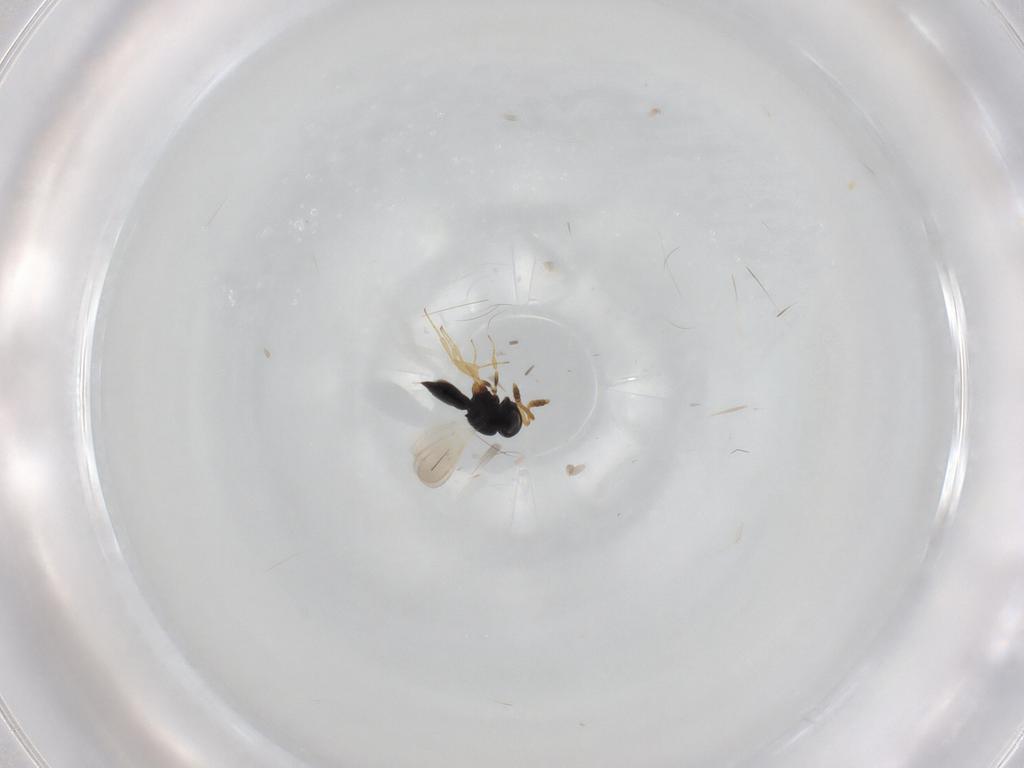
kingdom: Animalia
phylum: Arthropoda
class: Insecta
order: Hymenoptera
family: Scelionidae
